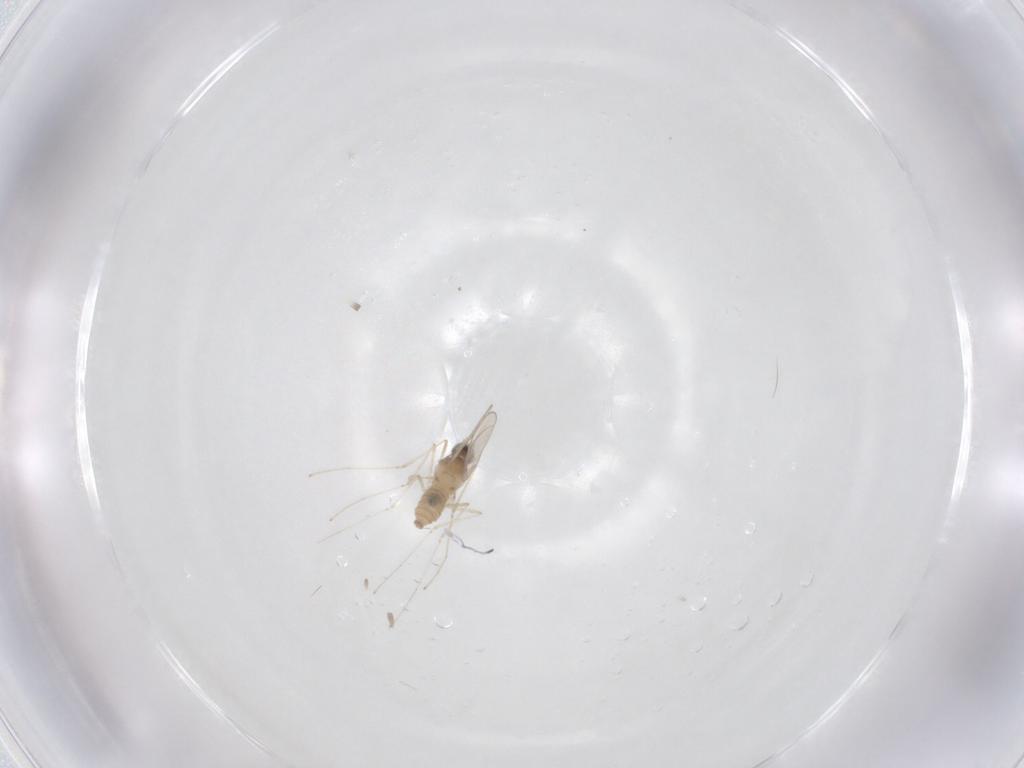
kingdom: Animalia
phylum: Arthropoda
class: Insecta
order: Diptera
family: Cecidomyiidae
